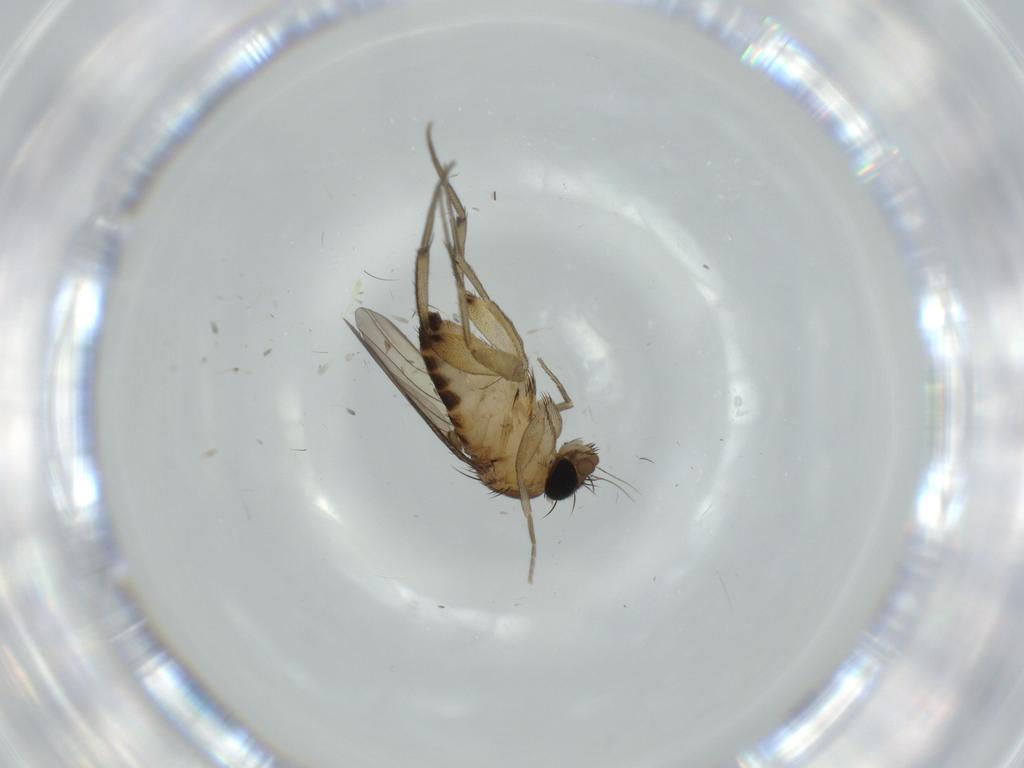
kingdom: Animalia
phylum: Arthropoda
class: Insecta
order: Diptera
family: Phoridae
